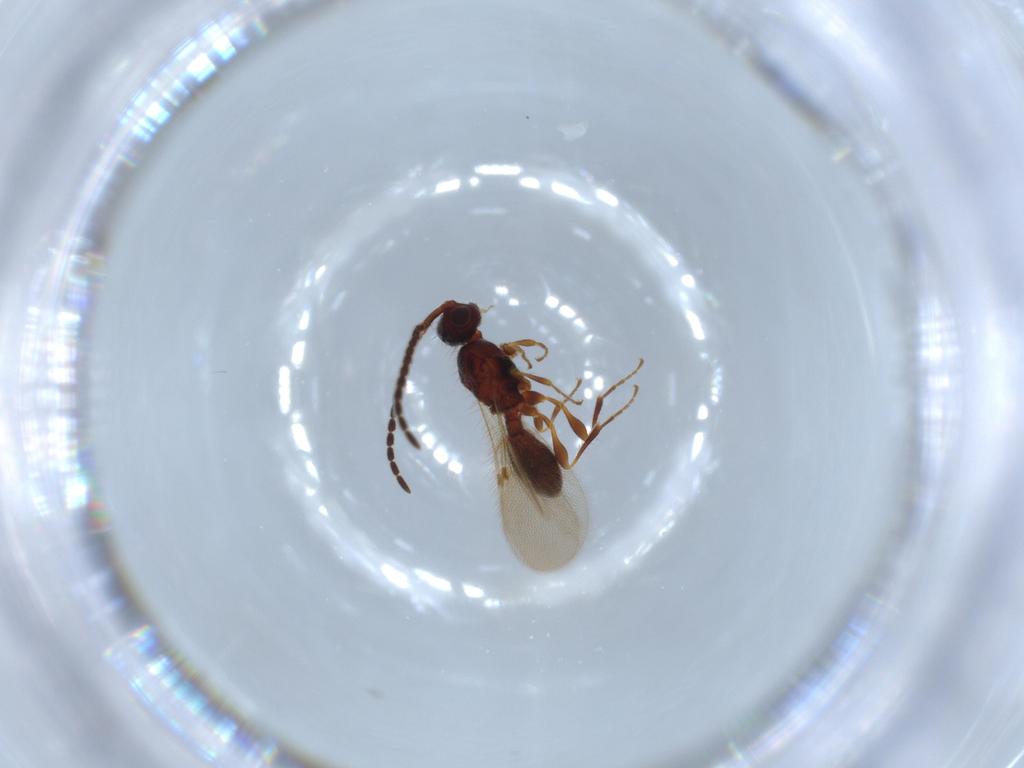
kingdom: Animalia
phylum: Arthropoda
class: Insecta
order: Hymenoptera
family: Diapriidae
